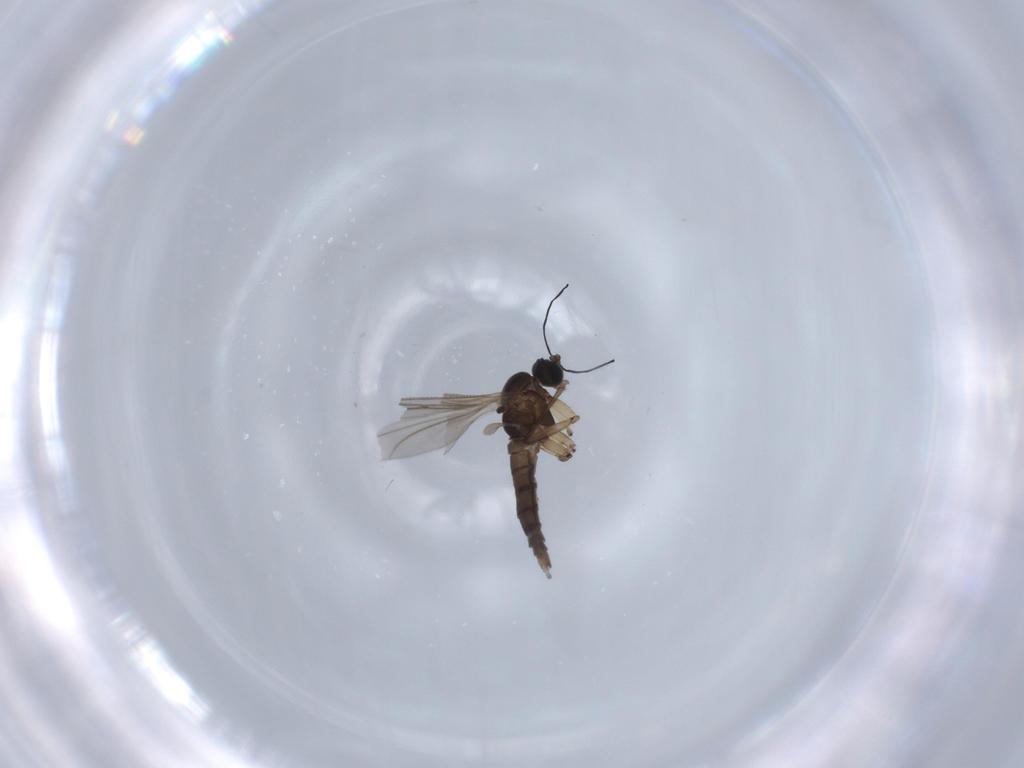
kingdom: Animalia
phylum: Arthropoda
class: Insecta
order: Diptera
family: Sciaridae
